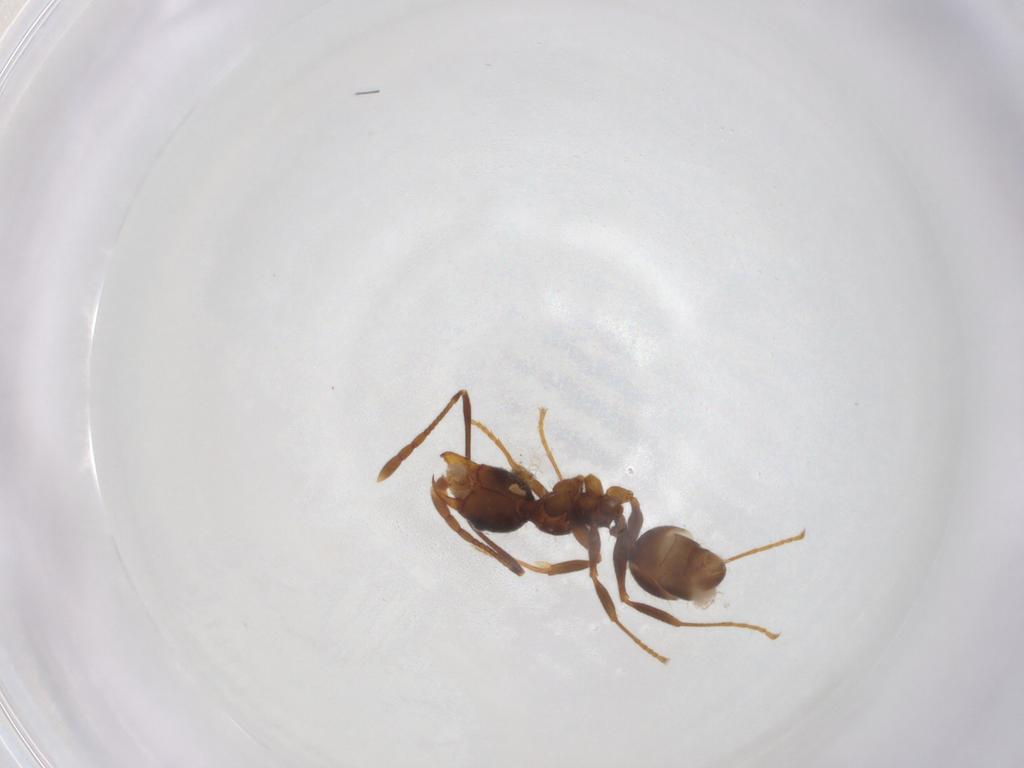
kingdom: Animalia
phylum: Arthropoda
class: Insecta
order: Hymenoptera
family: Formicidae
